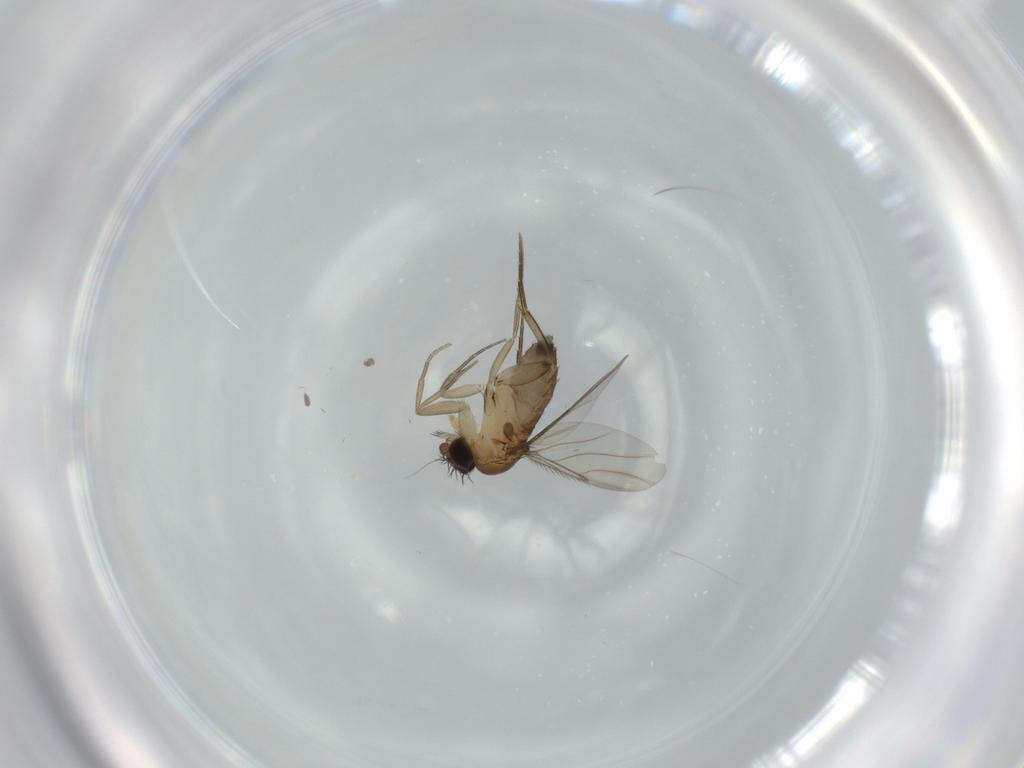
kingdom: Animalia
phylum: Arthropoda
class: Insecta
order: Diptera
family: Phoridae
